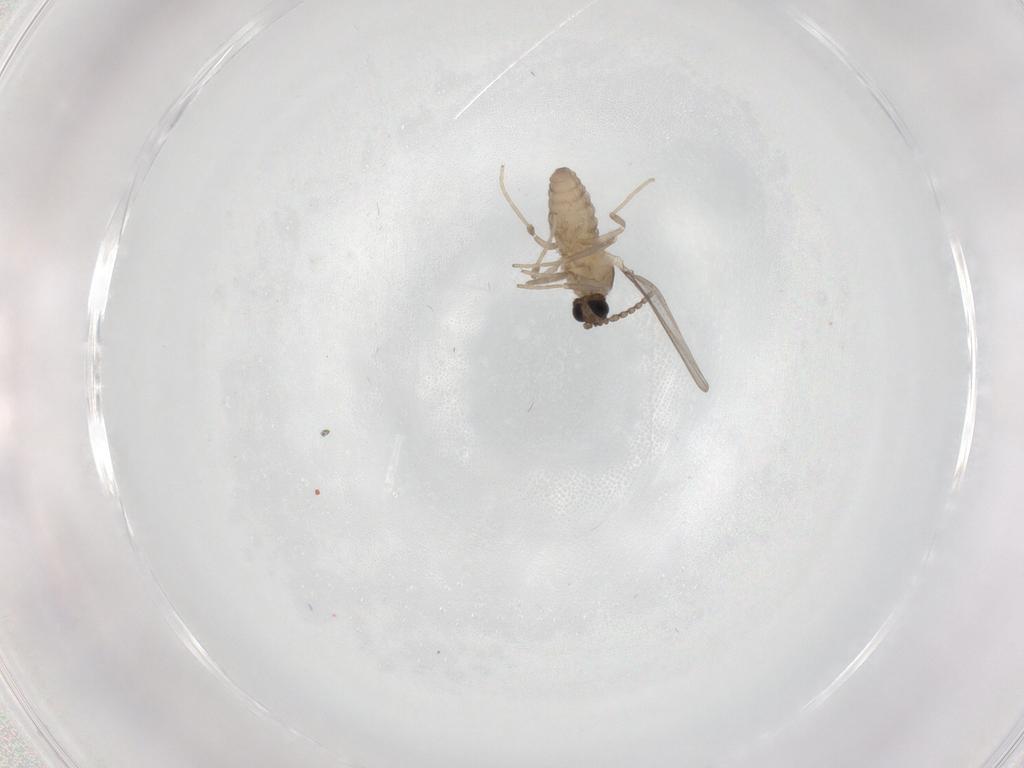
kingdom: Animalia
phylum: Arthropoda
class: Insecta
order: Diptera
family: Cecidomyiidae
